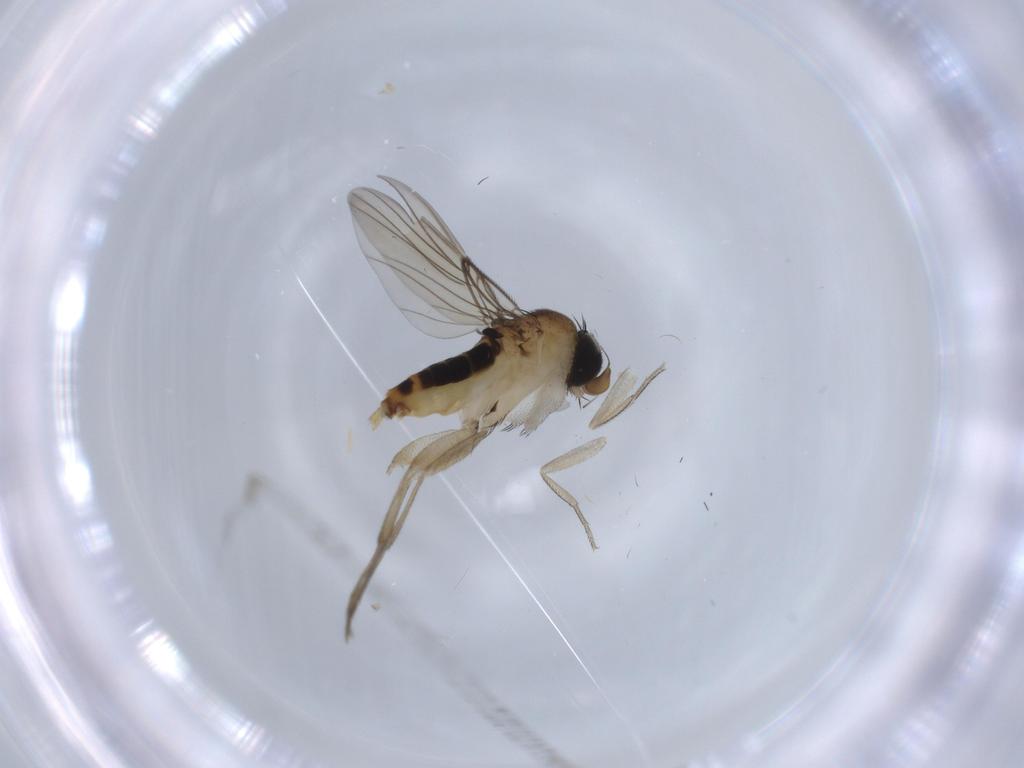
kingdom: Animalia
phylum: Arthropoda
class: Insecta
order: Diptera
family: Phoridae
